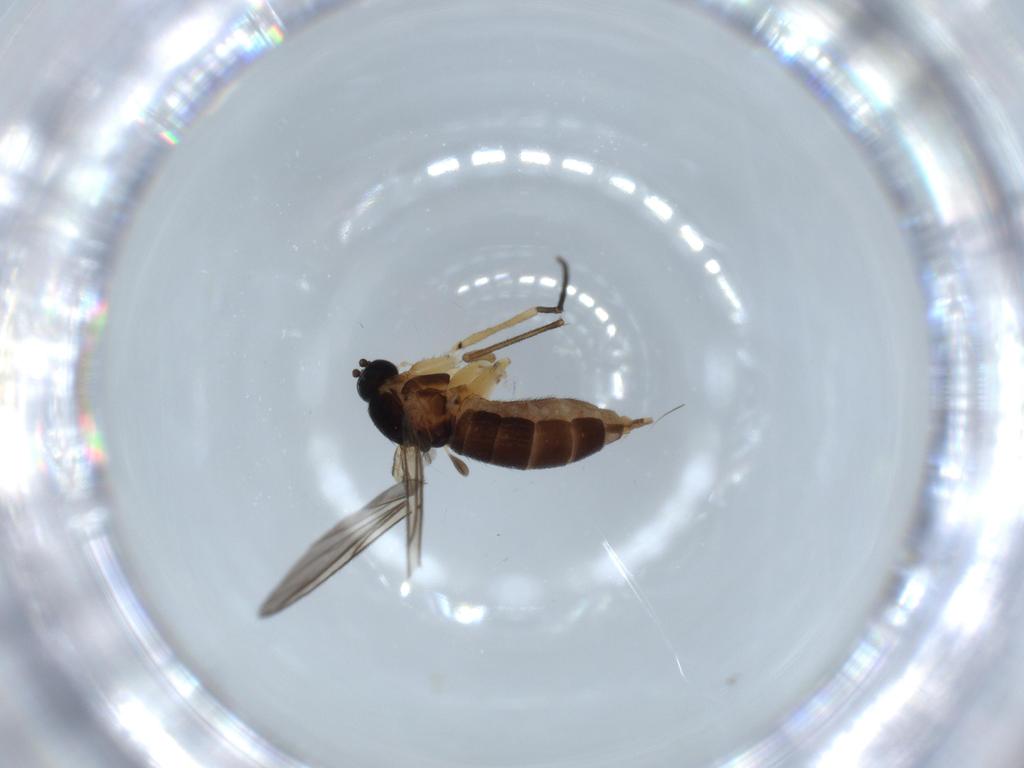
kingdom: Animalia
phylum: Arthropoda
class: Insecta
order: Diptera
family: Sciaridae
